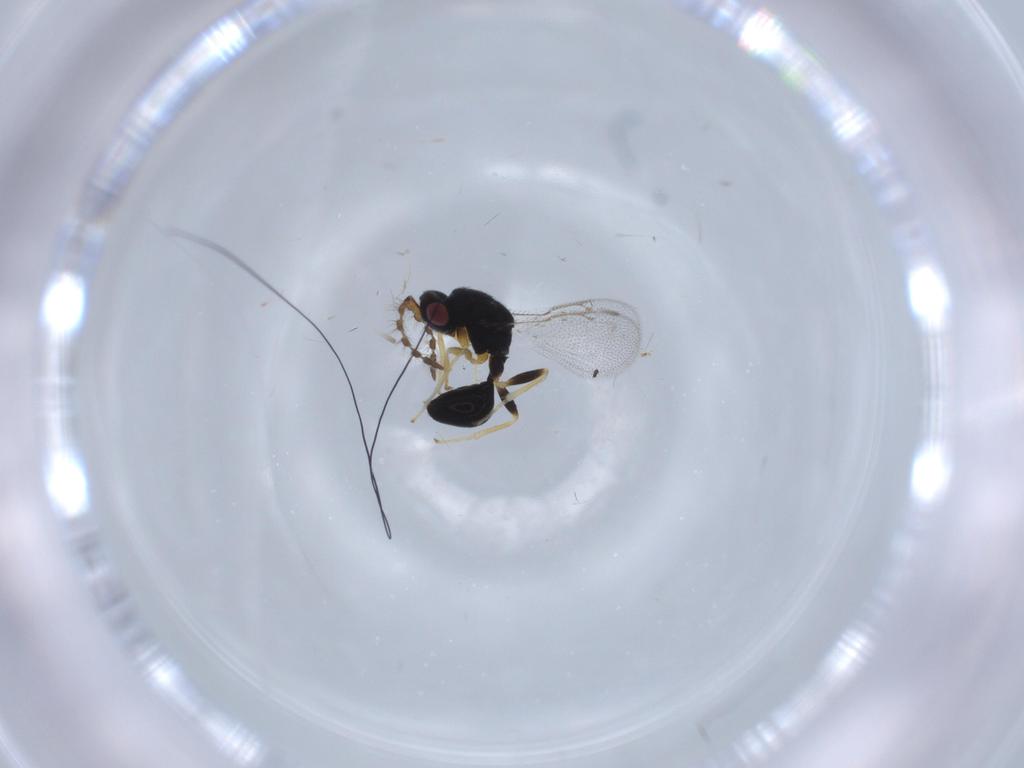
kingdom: Animalia
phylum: Arthropoda
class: Insecta
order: Hymenoptera
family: Eurytomidae
